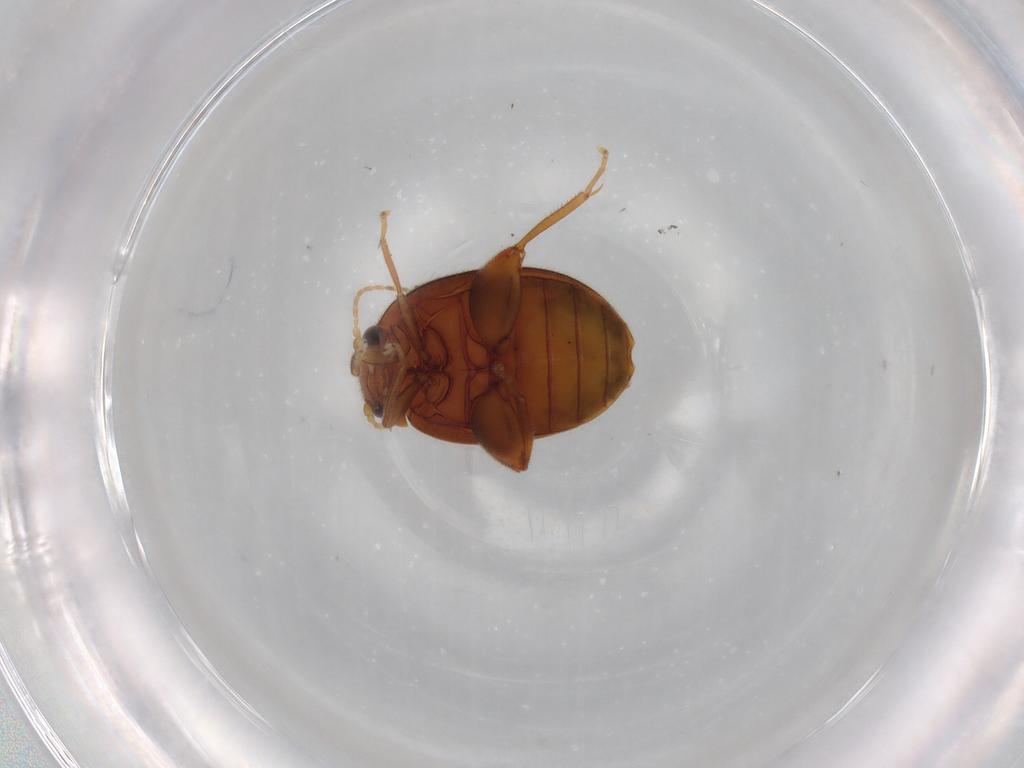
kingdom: Animalia
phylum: Arthropoda
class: Insecta
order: Coleoptera
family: Scirtidae
